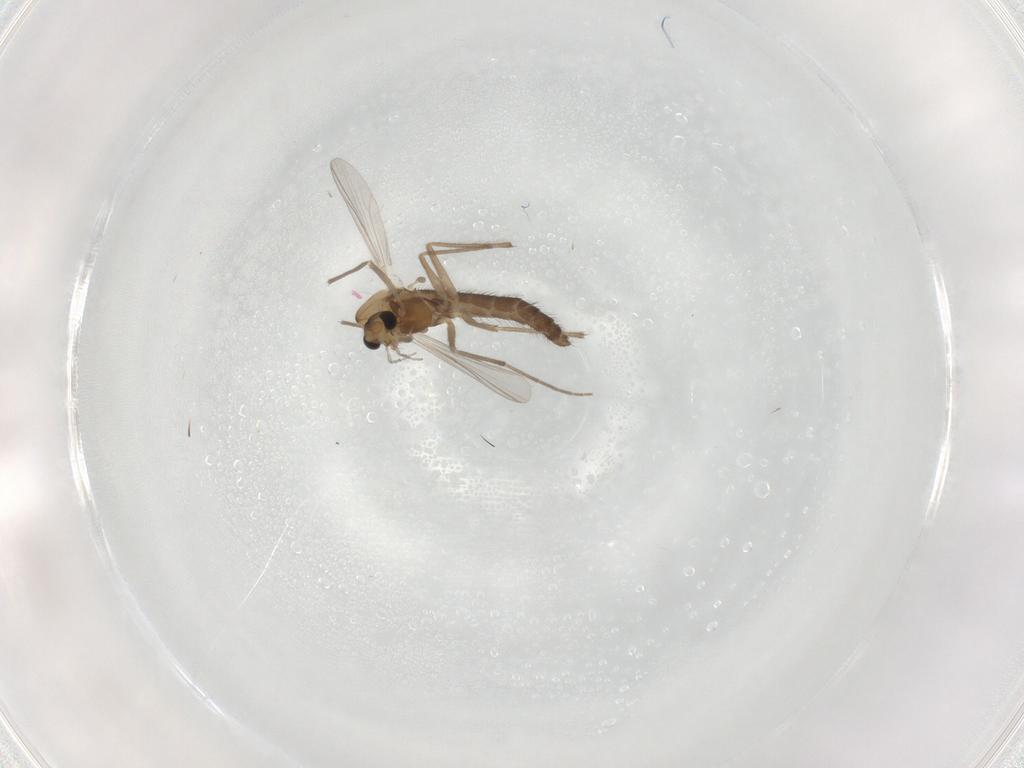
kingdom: Animalia
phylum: Arthropoda
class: Insecta
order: Diptera
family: Chironomidae
